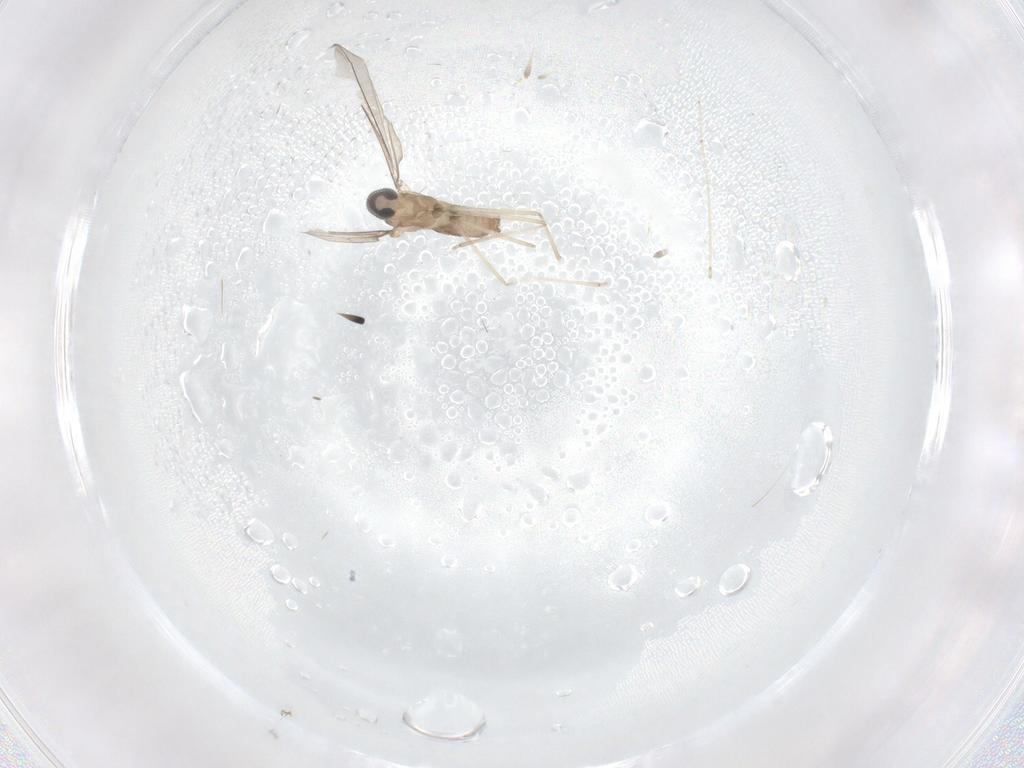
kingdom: Animalia
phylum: Arthropoda
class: Insecta
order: Diptera
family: Cecidomyiidae
